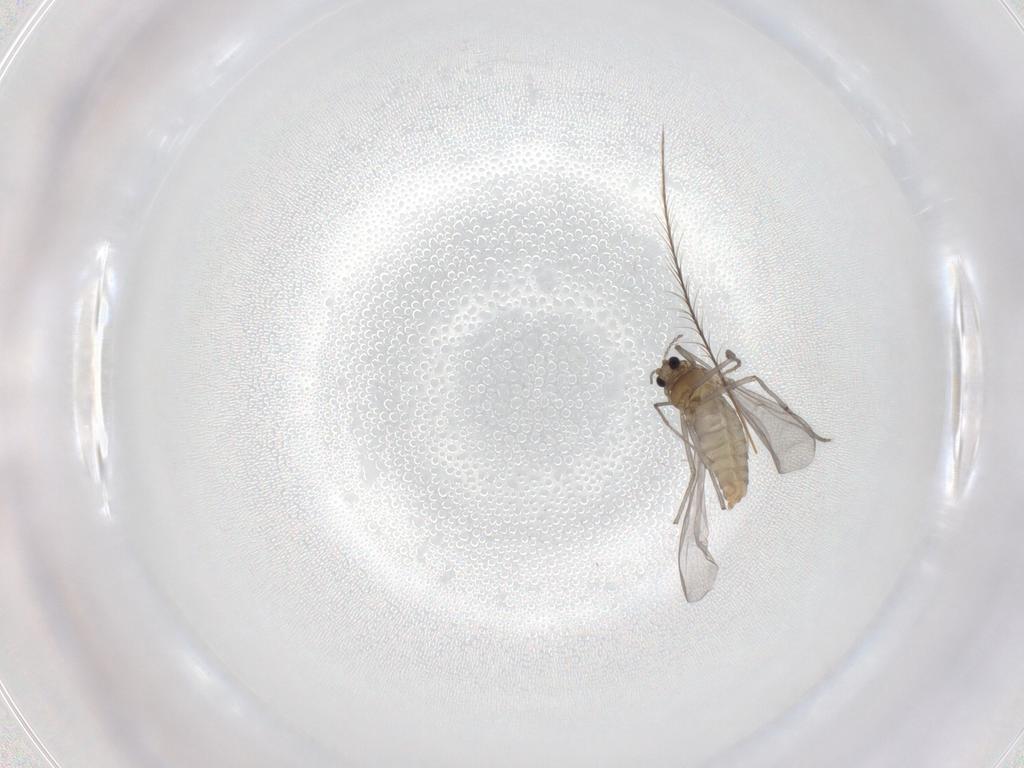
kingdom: Animalia
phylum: Arthropoda
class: Insecta
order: Diptera
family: Chironomidae
